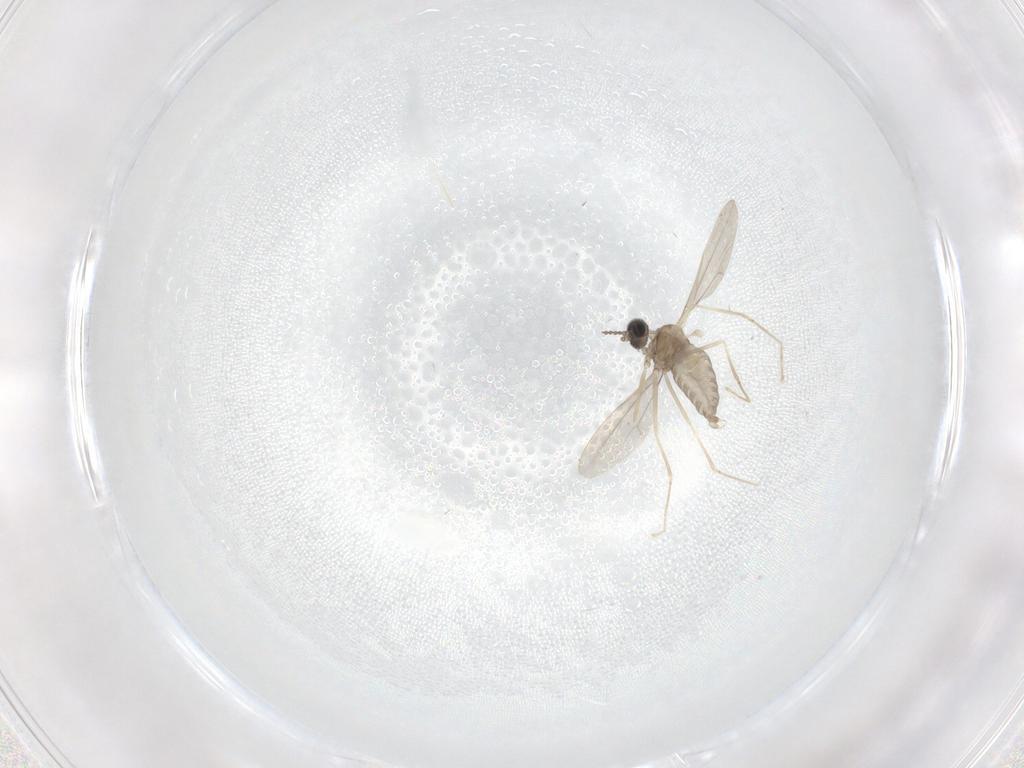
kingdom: Animalia
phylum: Arthropoda
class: Insecta
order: Diptera
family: Cecidomyiidae
